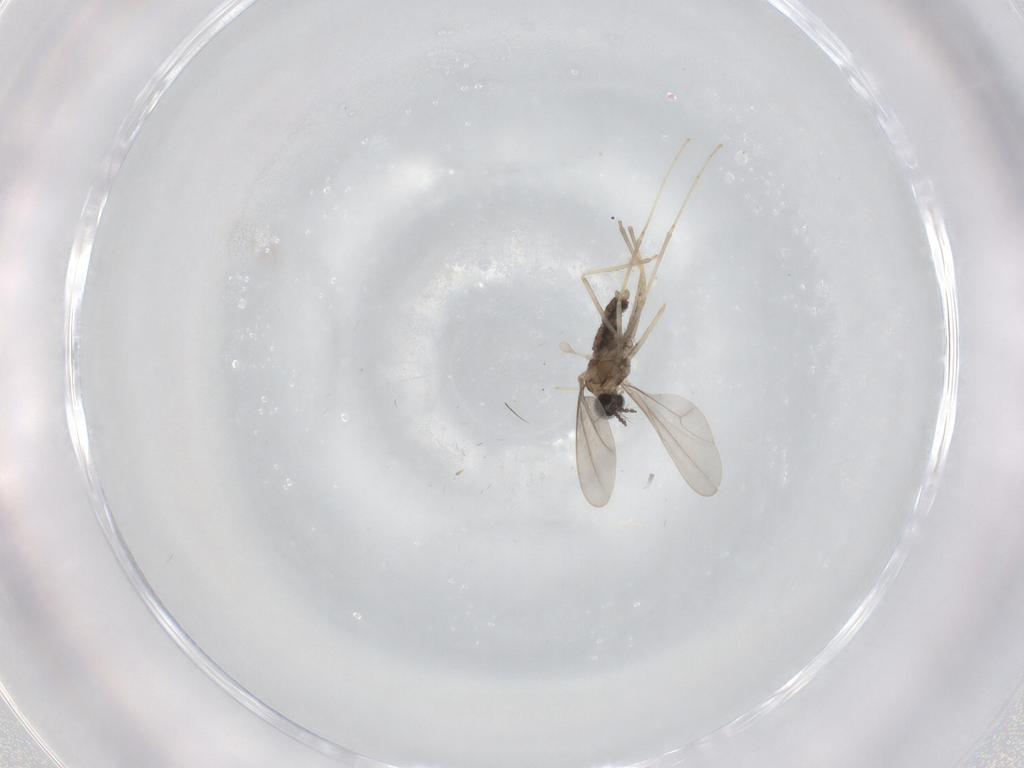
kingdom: Animalia
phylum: Arthropoda
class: Insecta
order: Diptera
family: Cecidomyiidae
